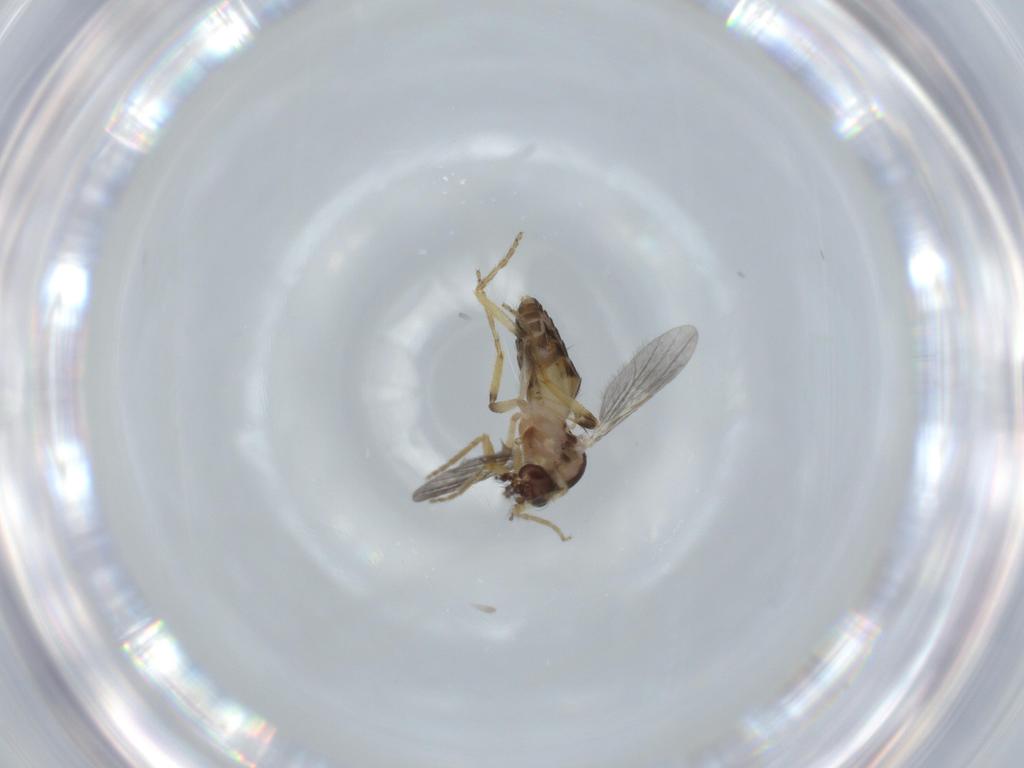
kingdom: Animalia
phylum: Arthropoda
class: Insecta
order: Diptera
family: Ceratopogonidae
